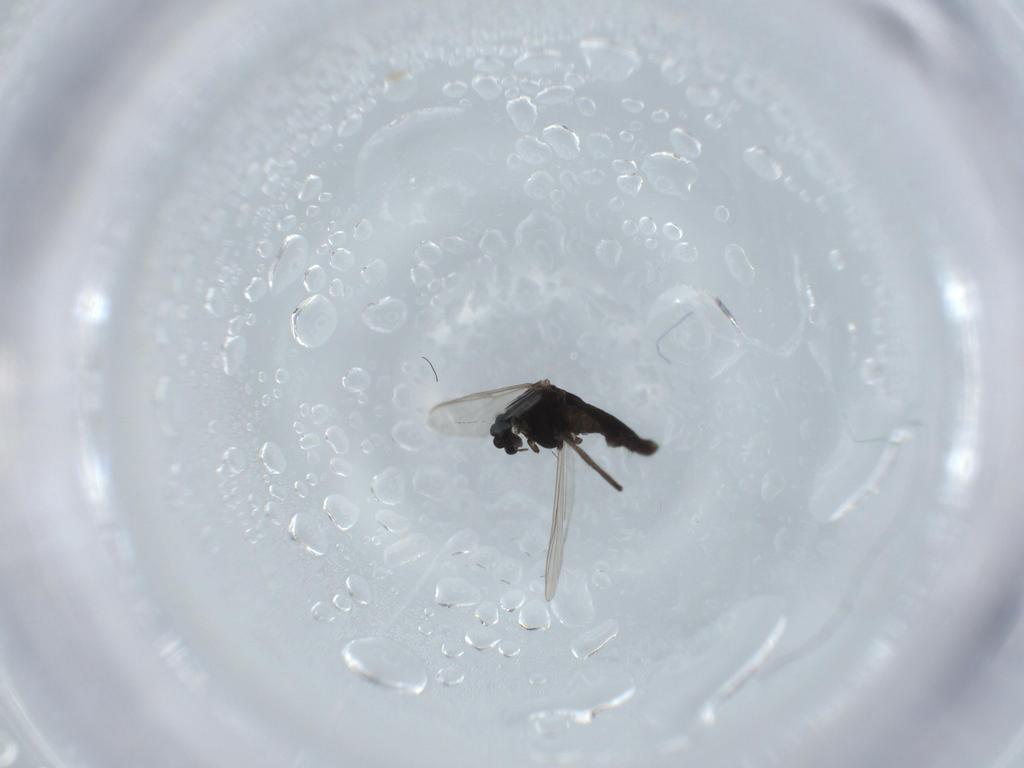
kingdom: Animalia
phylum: Arthropoda
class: Insecta
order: Diptera
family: Chironomidae
